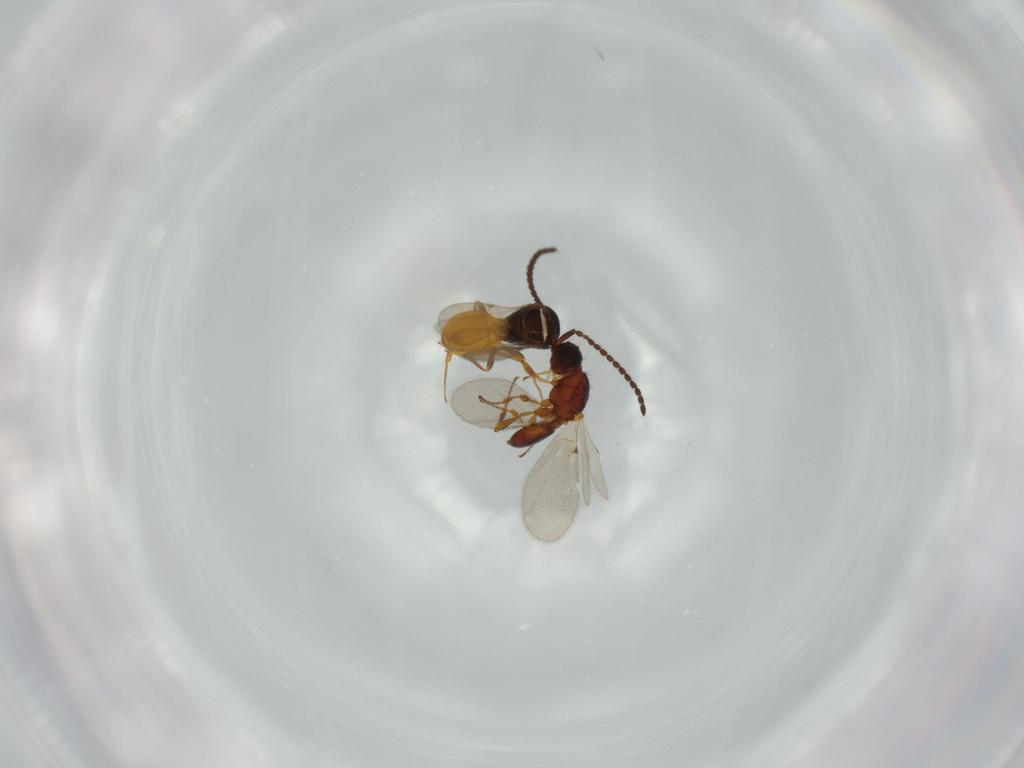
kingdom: Animalia
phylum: Arthropoda
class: Insecta
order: Hymenoptera
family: Scelionidae
